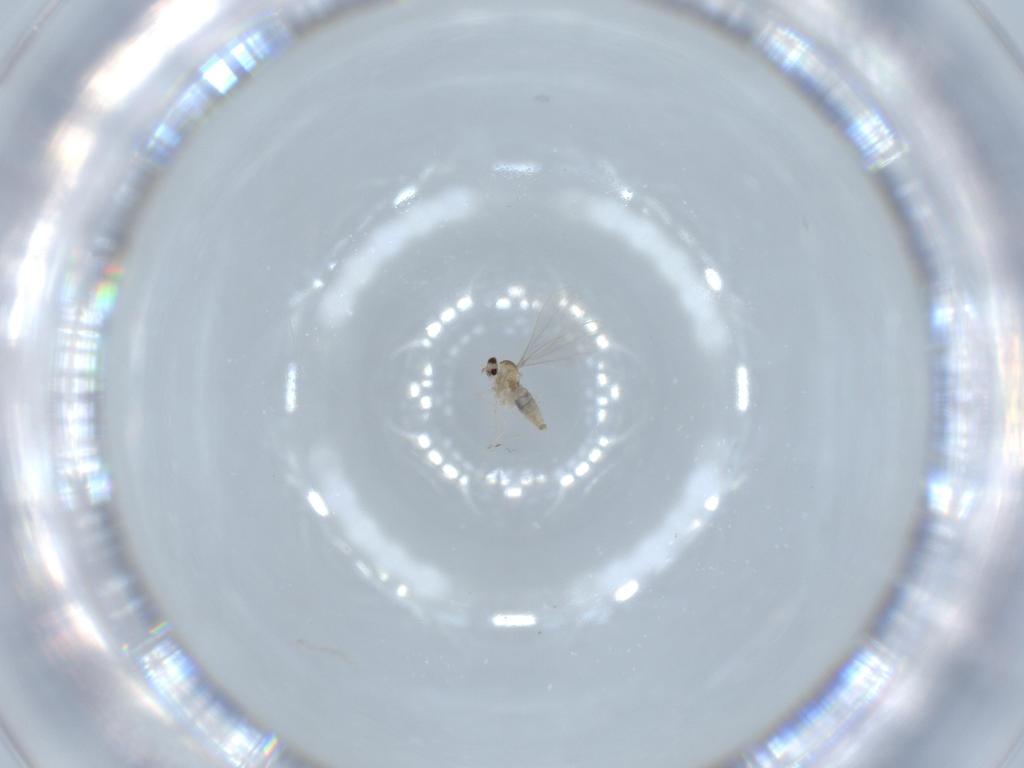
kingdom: Animalia
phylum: Arthropoda
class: Insecta
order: Diptera
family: Cecidomyiidae
